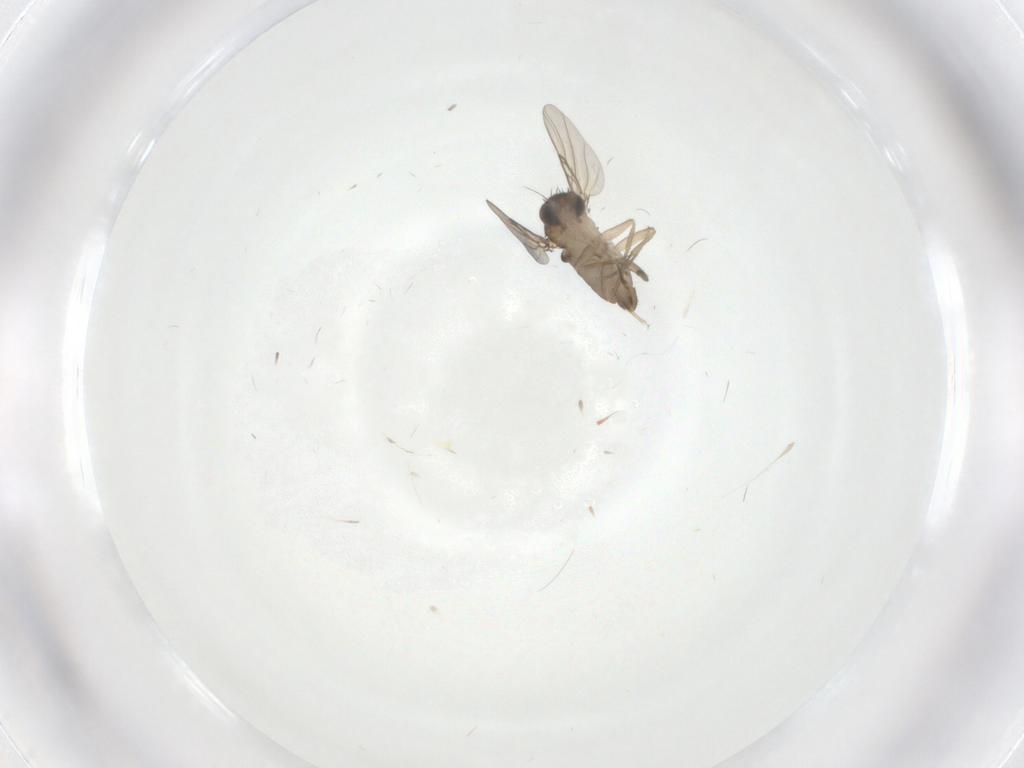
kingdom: Animalia
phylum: Arthropoda
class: Insecta
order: Diptera
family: Phoridae
